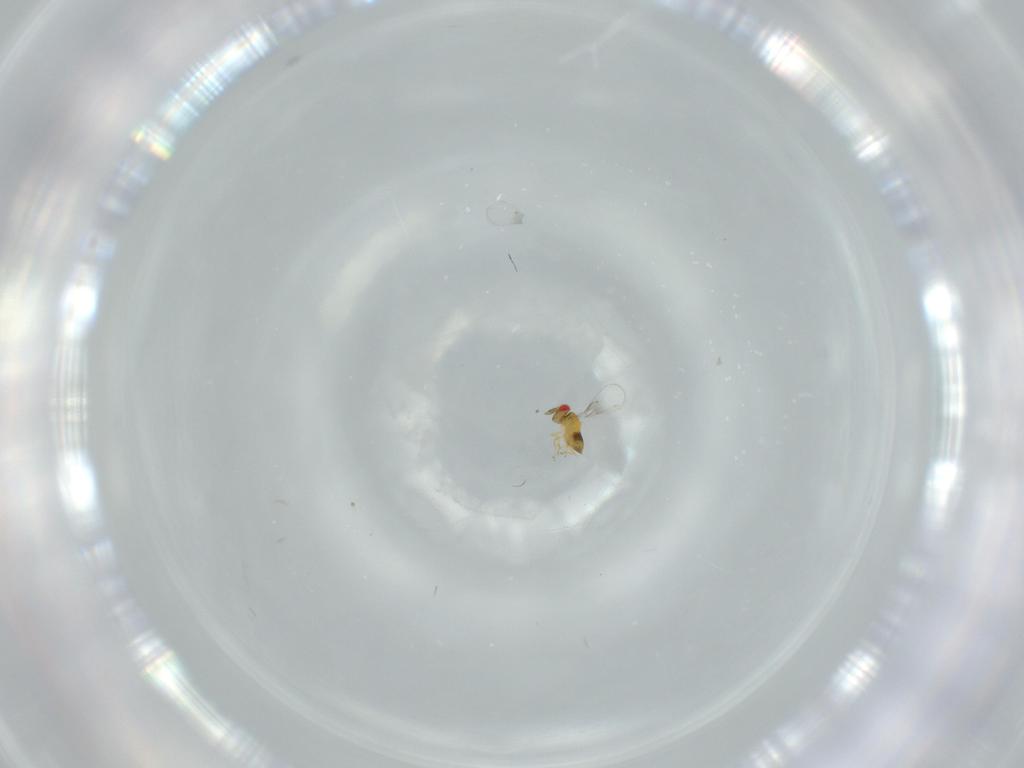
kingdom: Animalia
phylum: Arthropoda
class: Insecta
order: Hymenoptera
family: Trichogrammatidae
